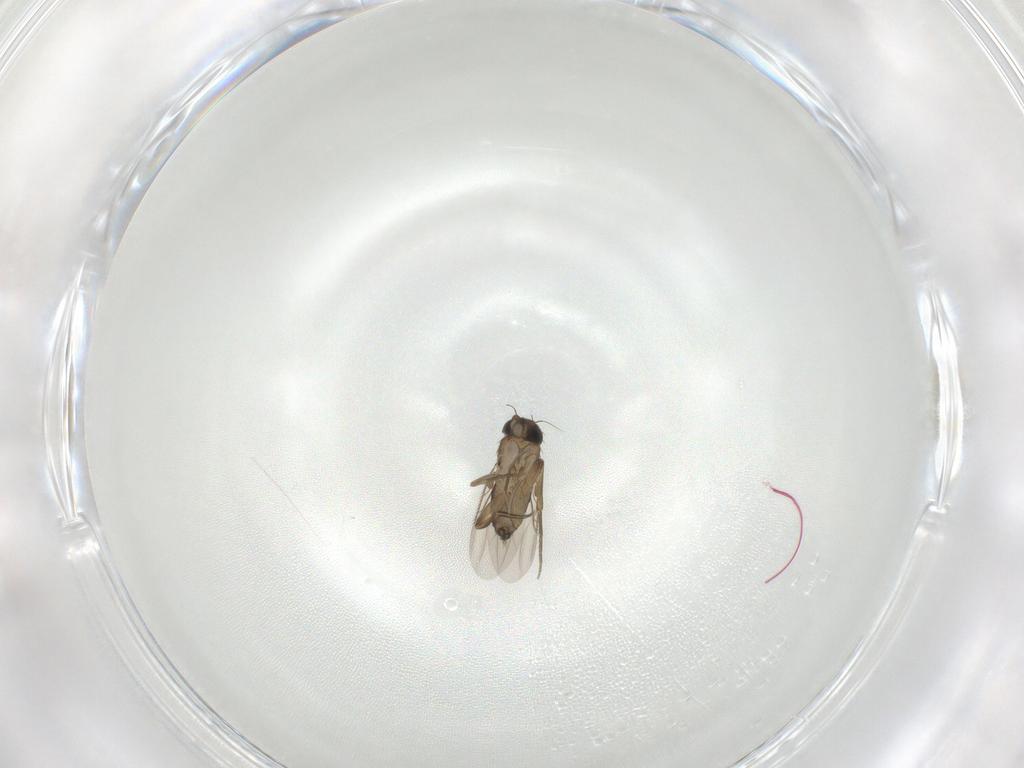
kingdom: Animalia
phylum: Arthropoda
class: Insecta
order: Diptera
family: Phoridae
